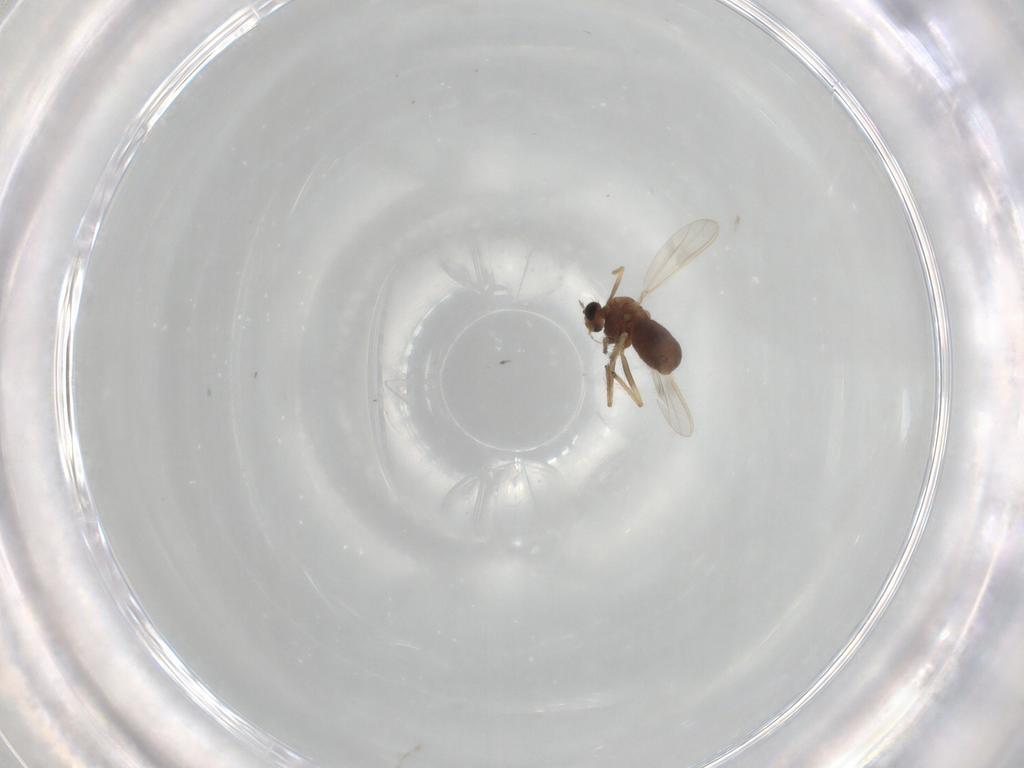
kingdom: Animalia
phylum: Arthropoda
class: Insecta
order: Diptera
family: Chironomidae
